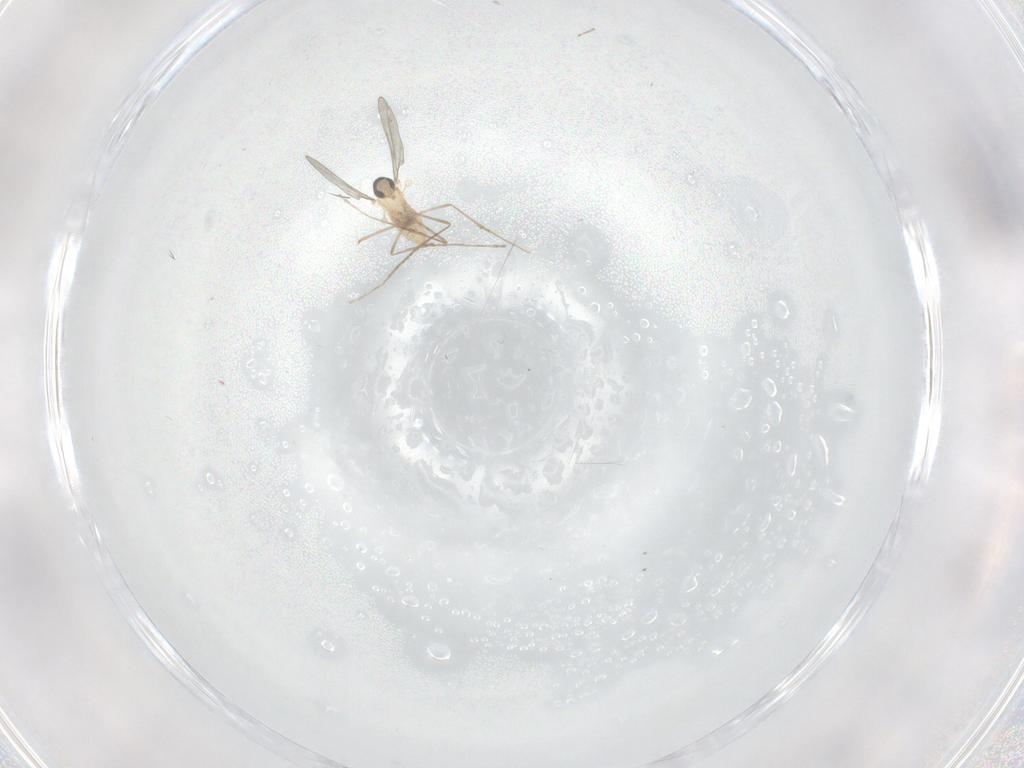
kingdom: Animalia
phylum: Arthropoda
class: Insecta
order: Diptera
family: Cecidomyiidae
